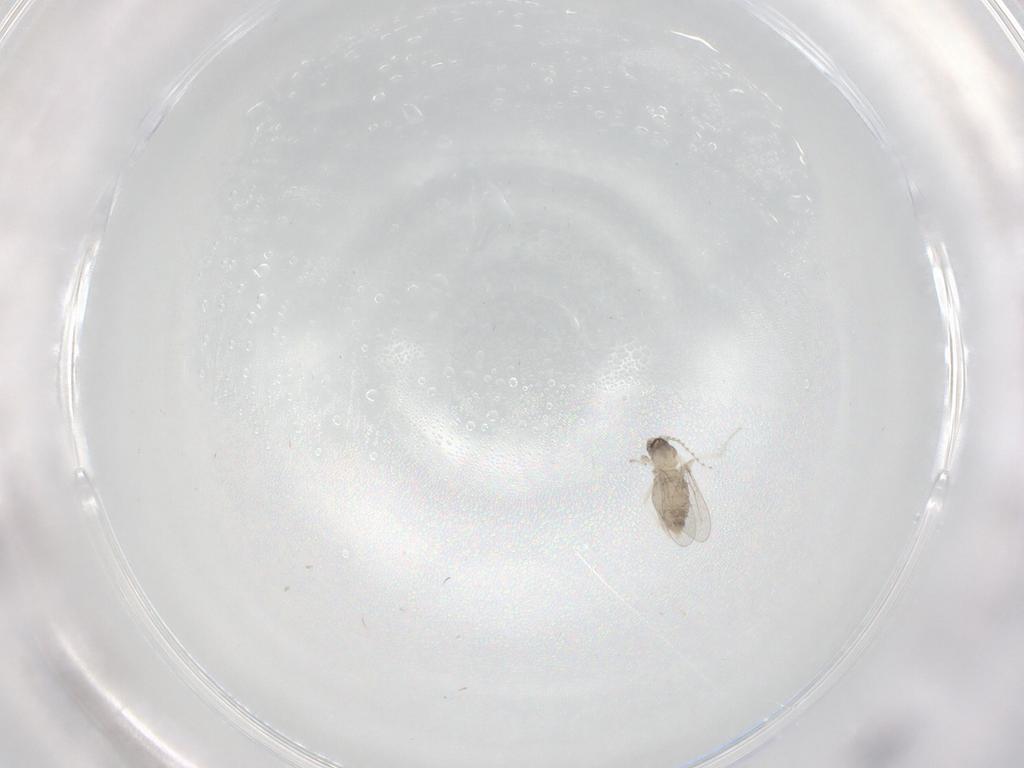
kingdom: Animalia
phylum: Arthropoda
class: Insecta
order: Diptera
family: Cecidomyiidae
